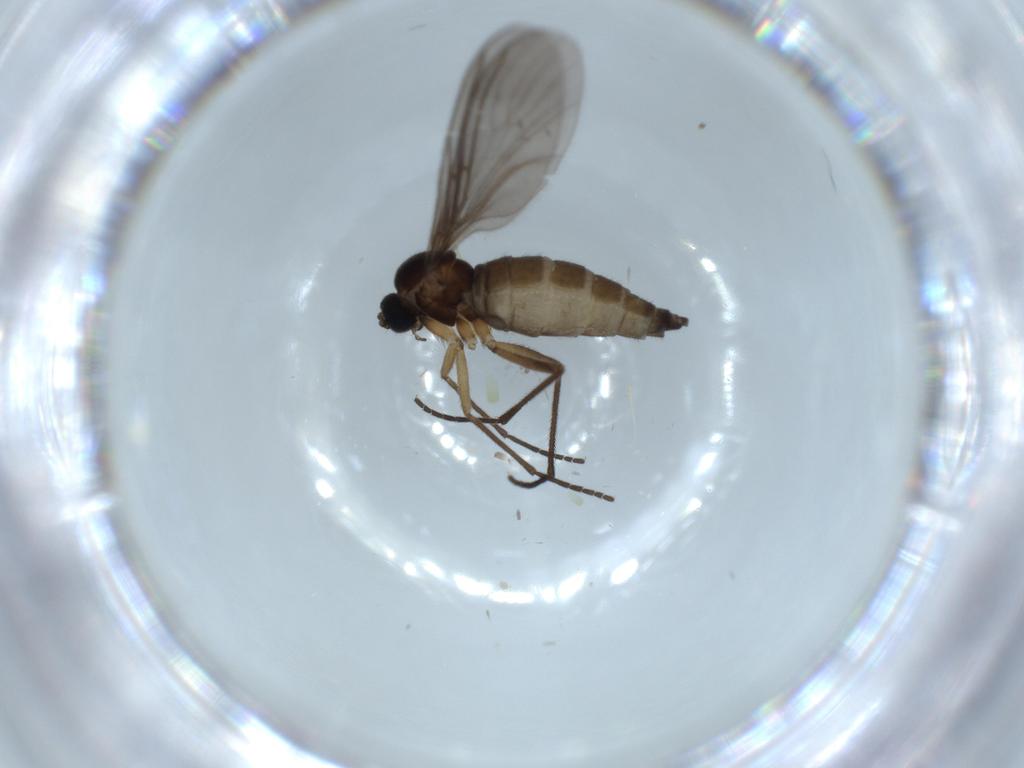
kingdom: Animalia
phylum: Arthropoda
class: Insecta
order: Diptera
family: Sciaridae
